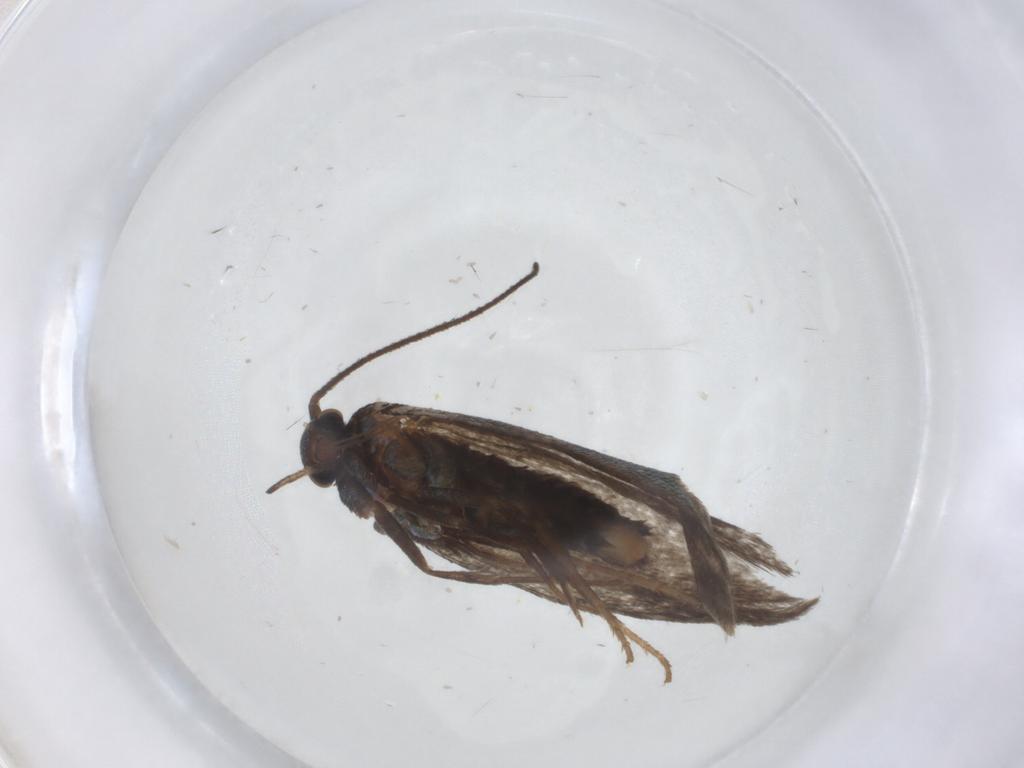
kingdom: Animalia
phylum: Arthropoda
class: Insecta
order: Lepidoptera
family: Argyresthiidae
